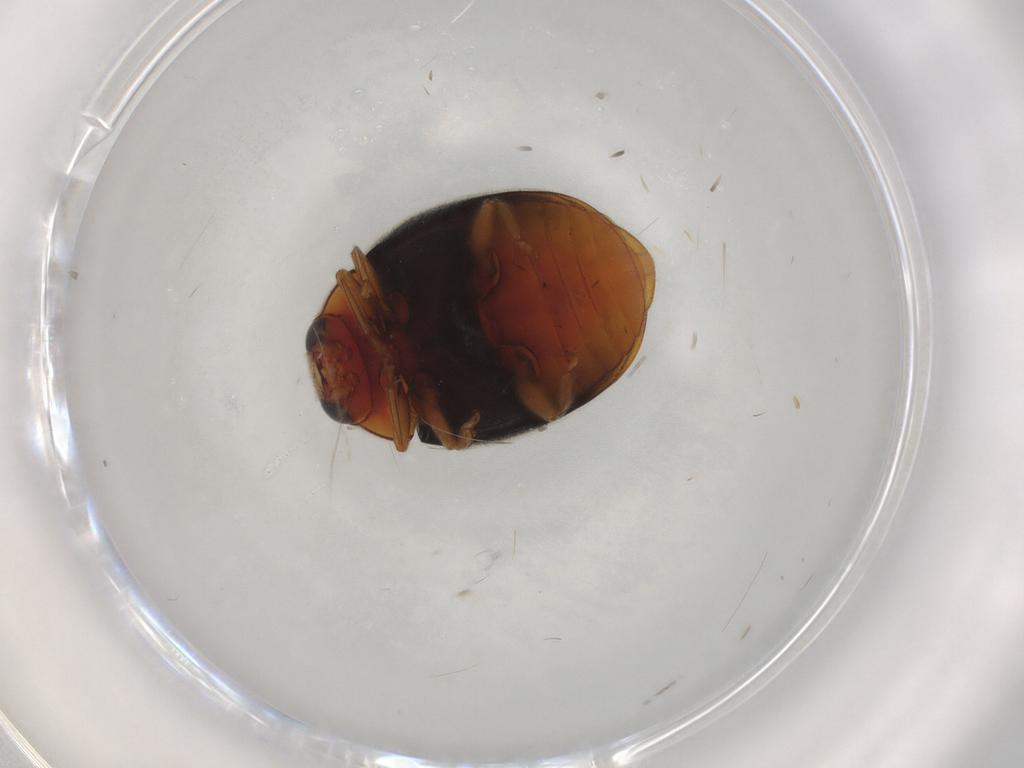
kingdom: Animalia
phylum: Arthropoda
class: Insecta
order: Coleoptera
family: Coccinellidae
